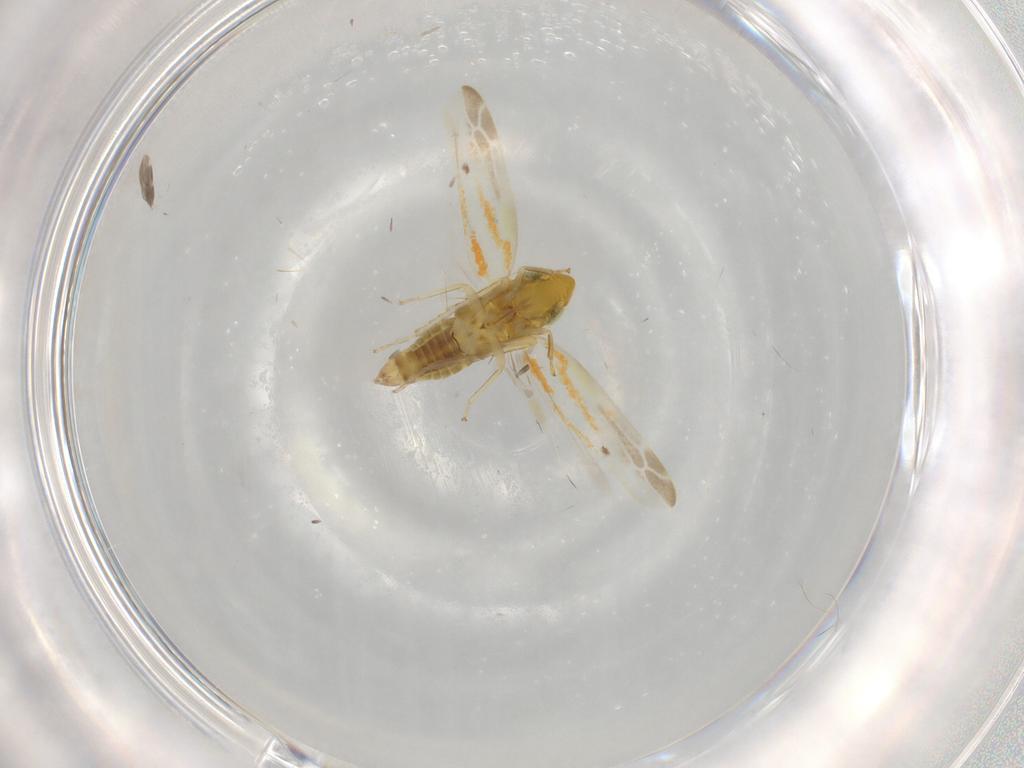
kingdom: Animalia
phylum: Arthropoda
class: Insecta
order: Hemiptera
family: Cicadellidae
